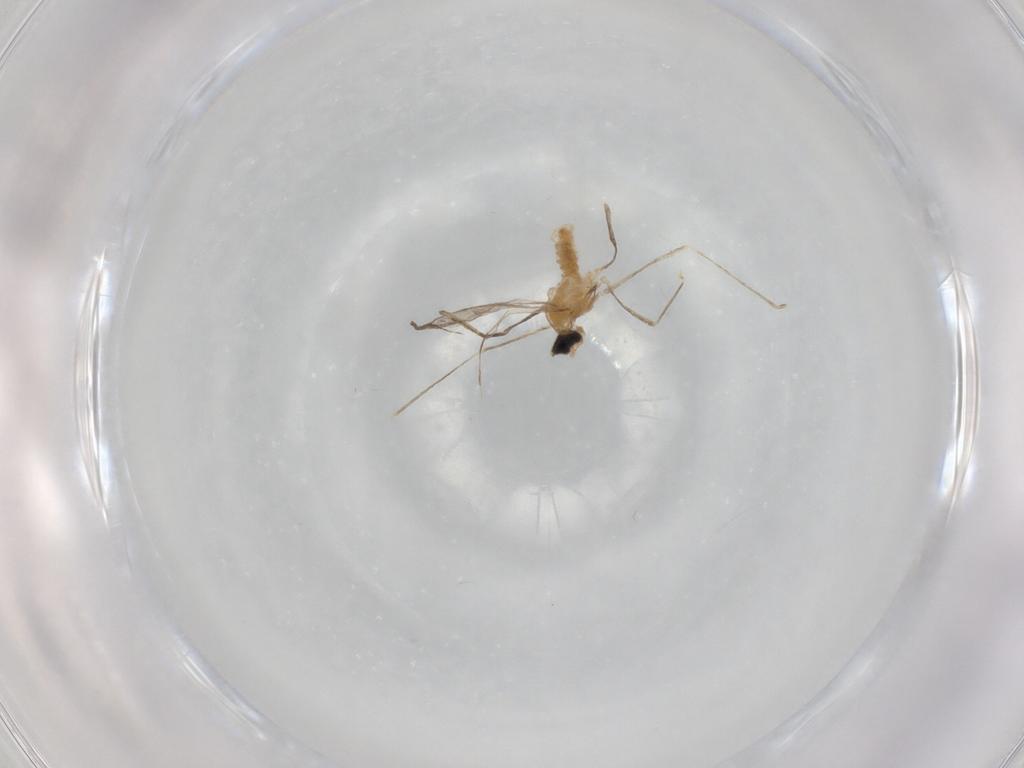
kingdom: Animalia
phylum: Arthropoda
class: Insecta
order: Diptera
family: Cecidomyiidae
